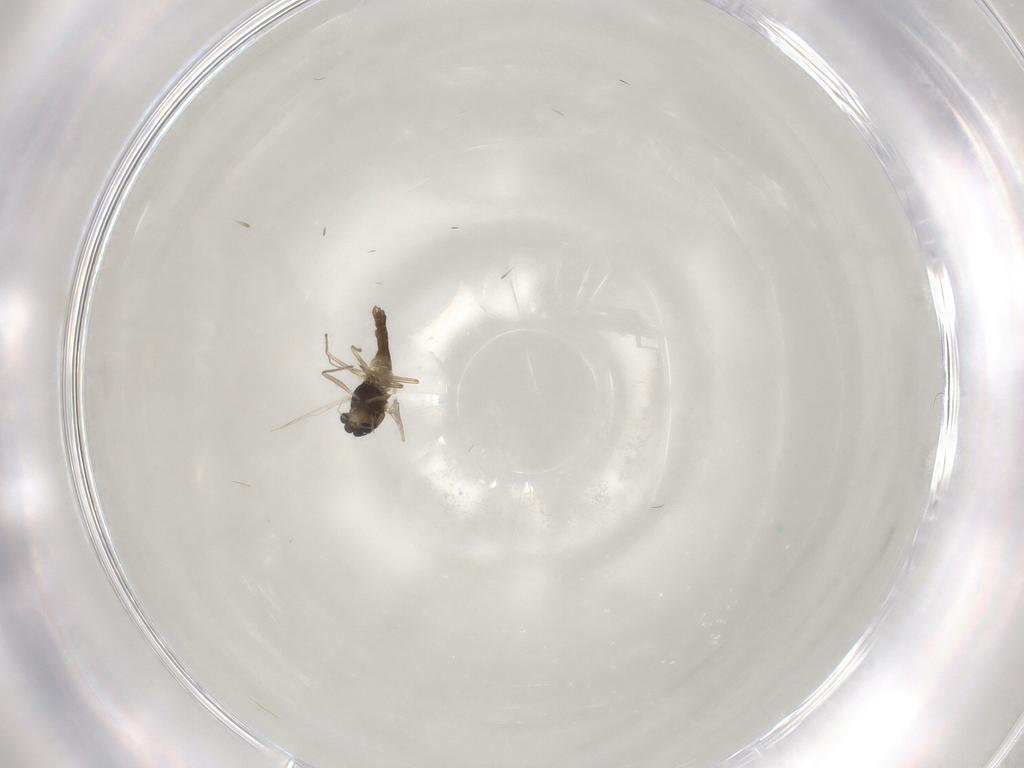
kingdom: Animalia
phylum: Arthropoda
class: Insecta
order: Diptera
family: Chironomidae
